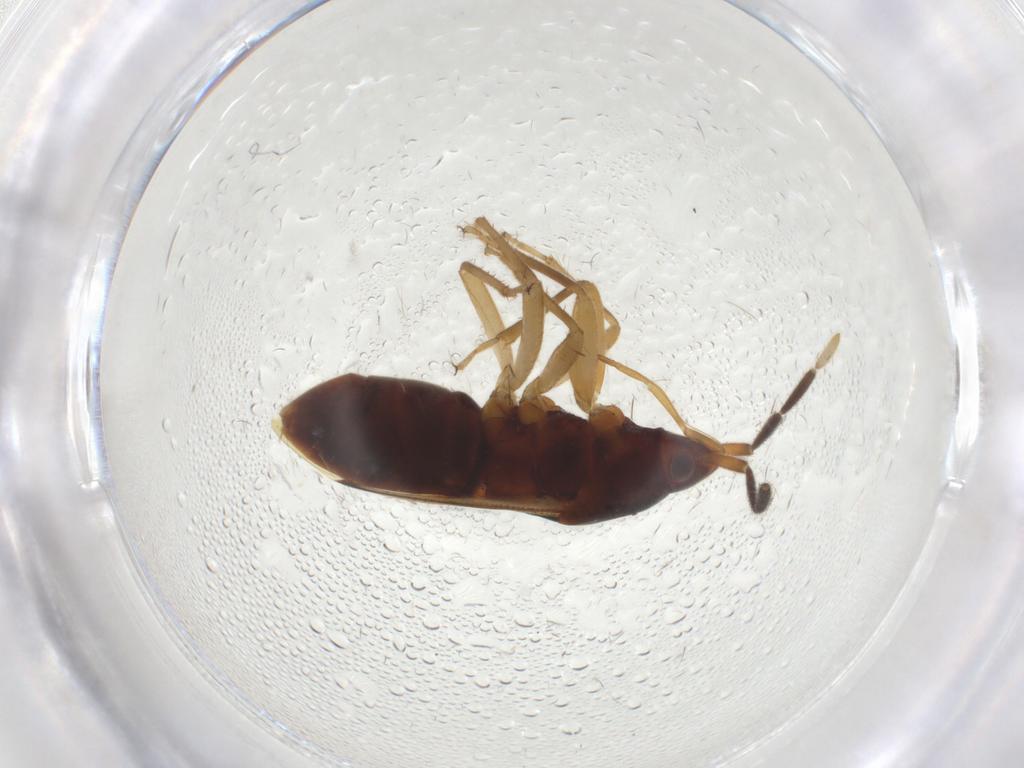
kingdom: Animalia
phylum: Arthropoda
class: Insecta
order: Hemiptera
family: Rhyparochromidae
